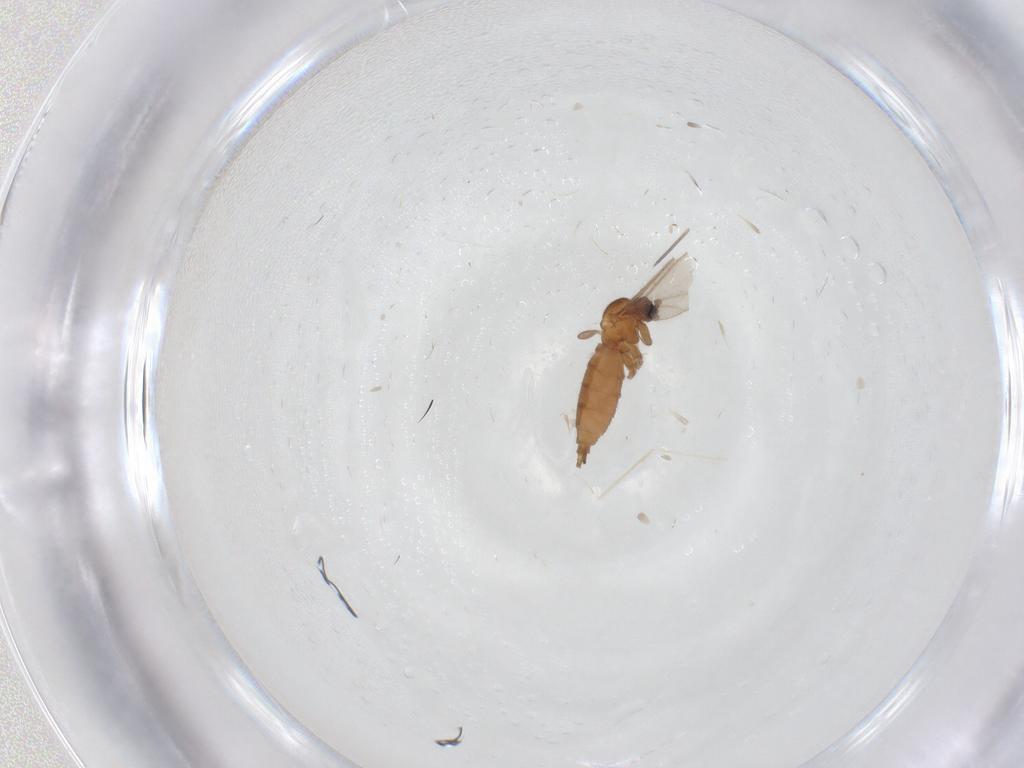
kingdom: Animalia
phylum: Arthropoda
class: Insecta
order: Diptera
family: Sciaridae
